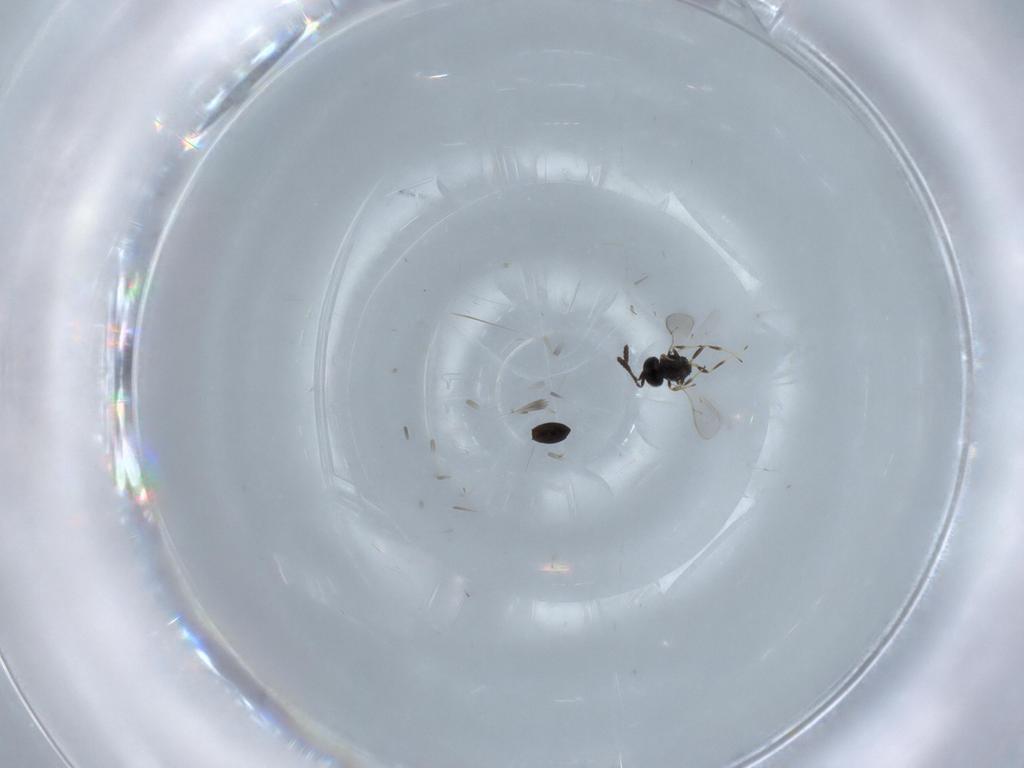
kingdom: Animalia
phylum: Arthropoda
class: Insecta
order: Hymenoptera
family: Scelionidae
